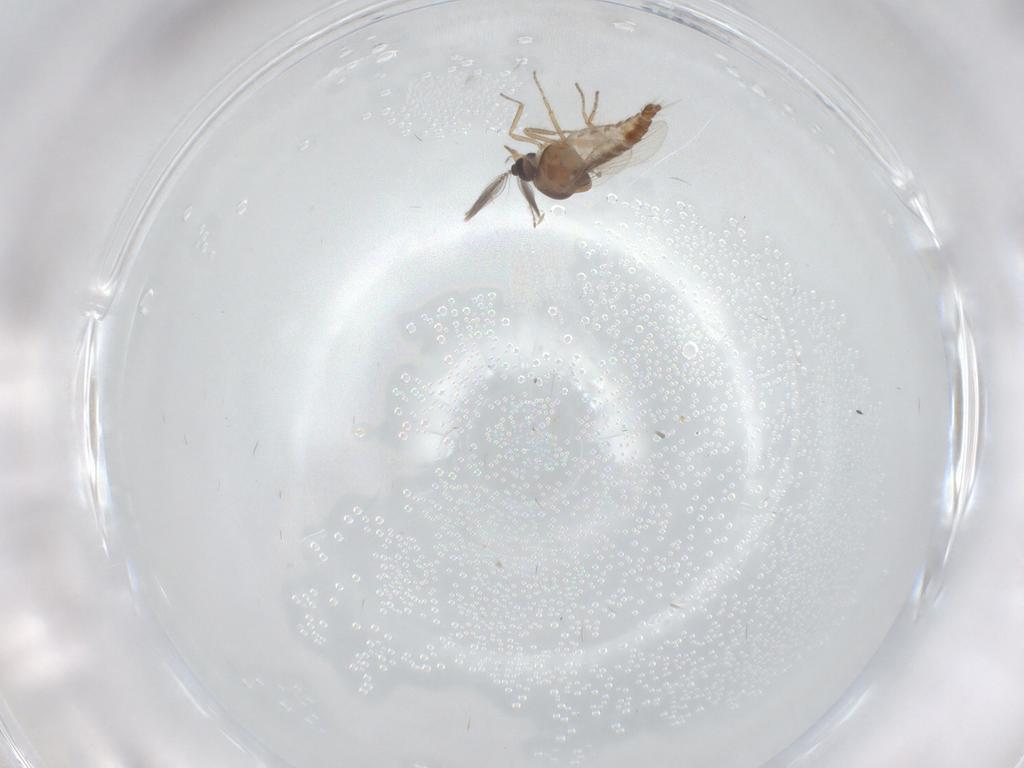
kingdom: Animalia
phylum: Arthropoda
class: Insecta
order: Diptera
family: Ceratopogonidae
